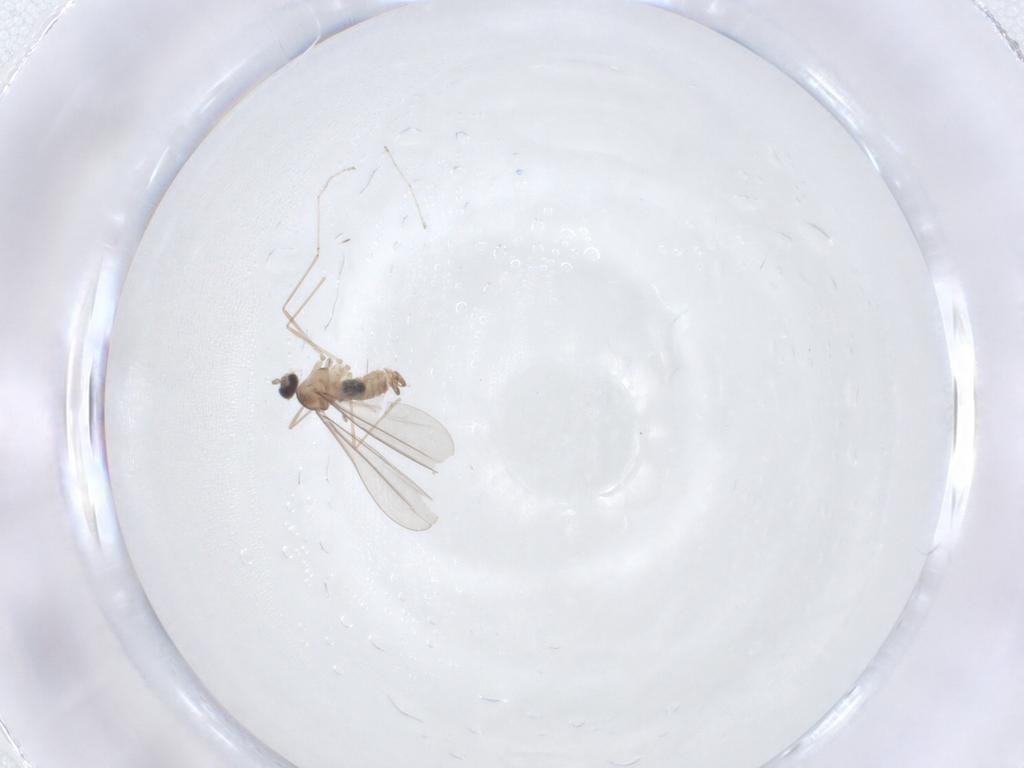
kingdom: Animalia
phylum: Arthropoda
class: Insecta
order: Diptera
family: Cecidomyiidae
